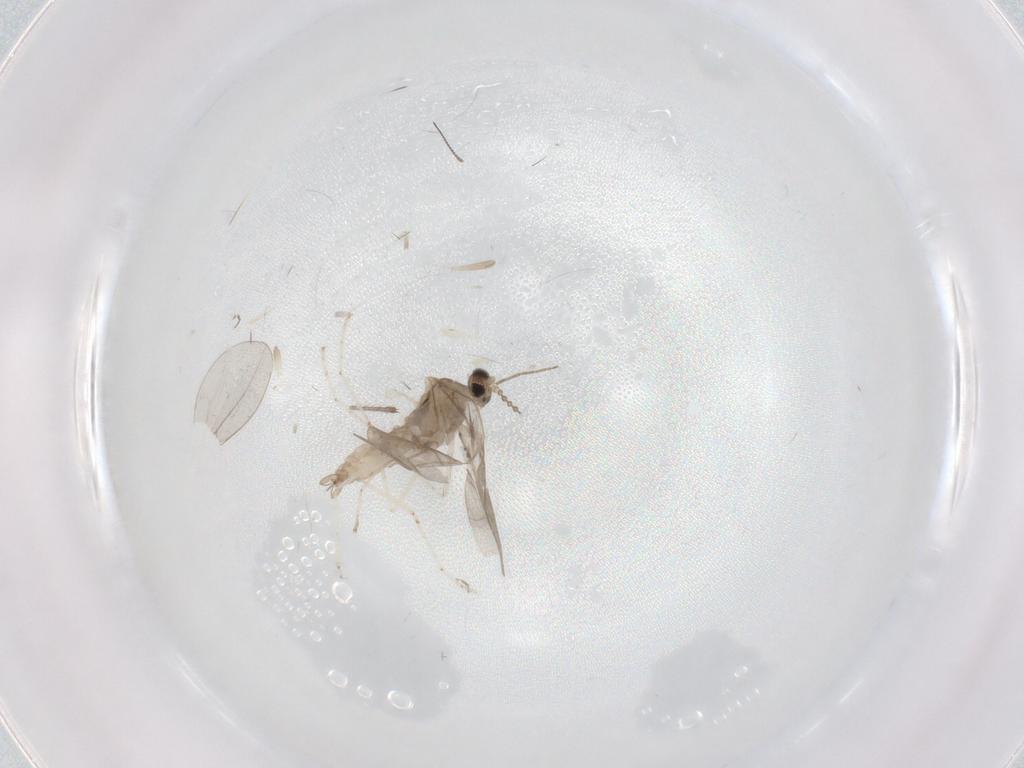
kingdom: Animalia
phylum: Arthropoda
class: Insecta
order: Diptera
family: Cecidomyiidae
